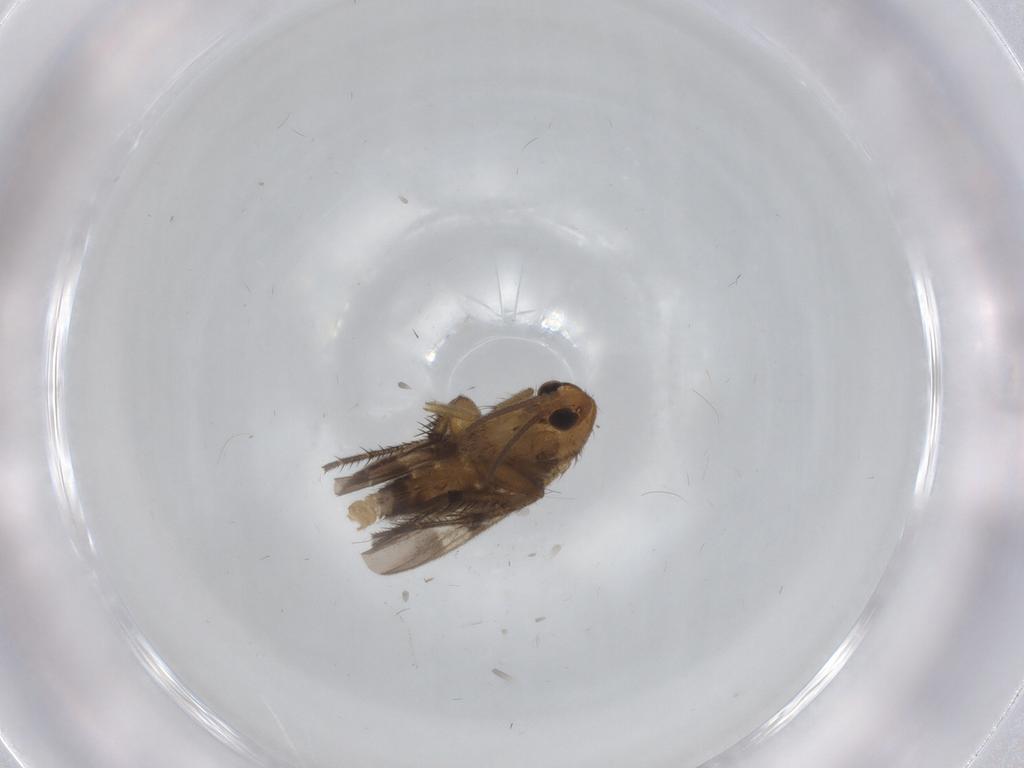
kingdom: Animalia
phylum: Arthropoda
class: Insecta
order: Diptera
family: Mycetophilidae
